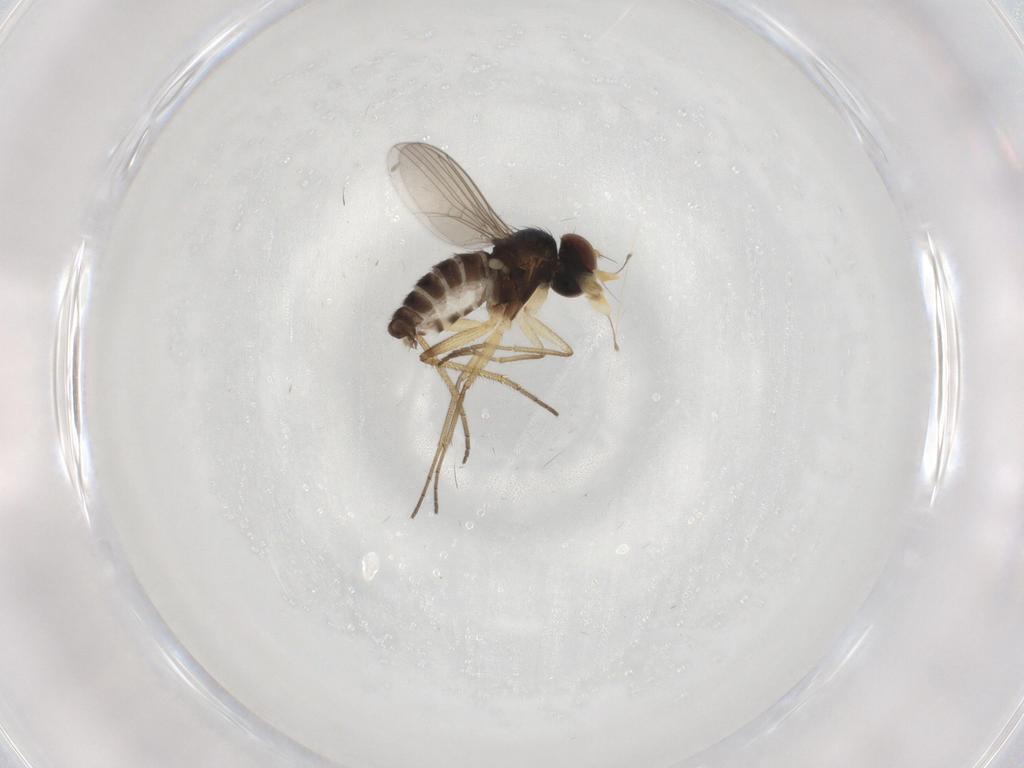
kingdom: Animalia
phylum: Arthropoda
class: Insecta
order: Diptera
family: Dolichopodidae
